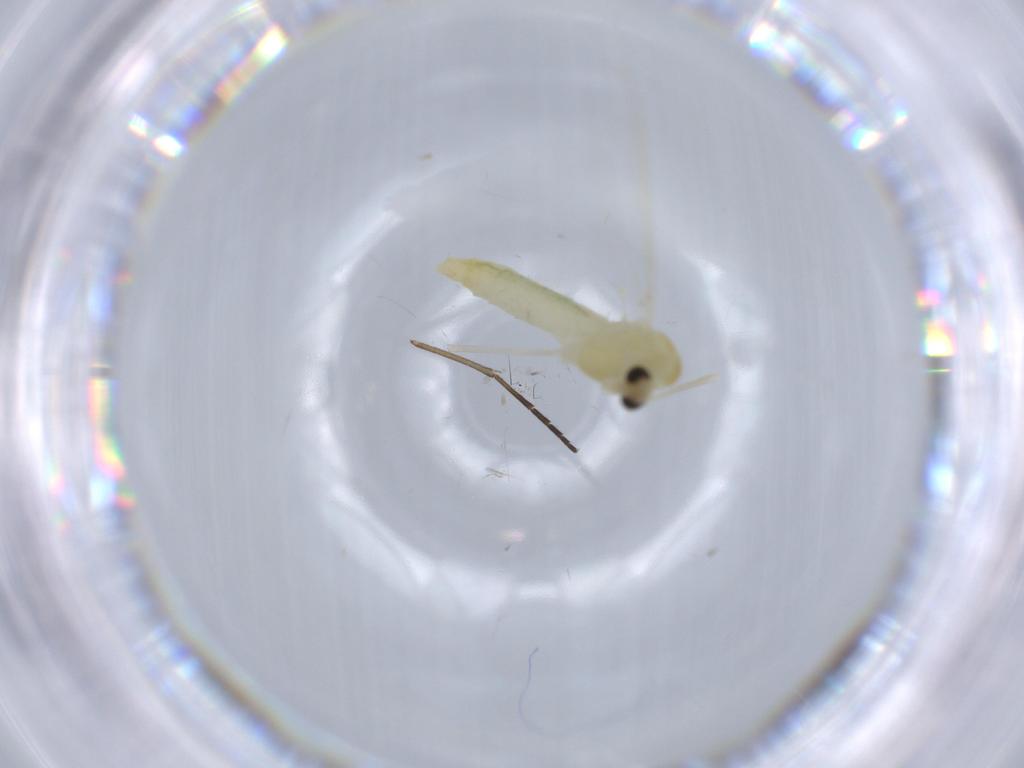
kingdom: Animalia
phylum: Arthropoda
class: Insecta
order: Diptera
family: Chironomidae
